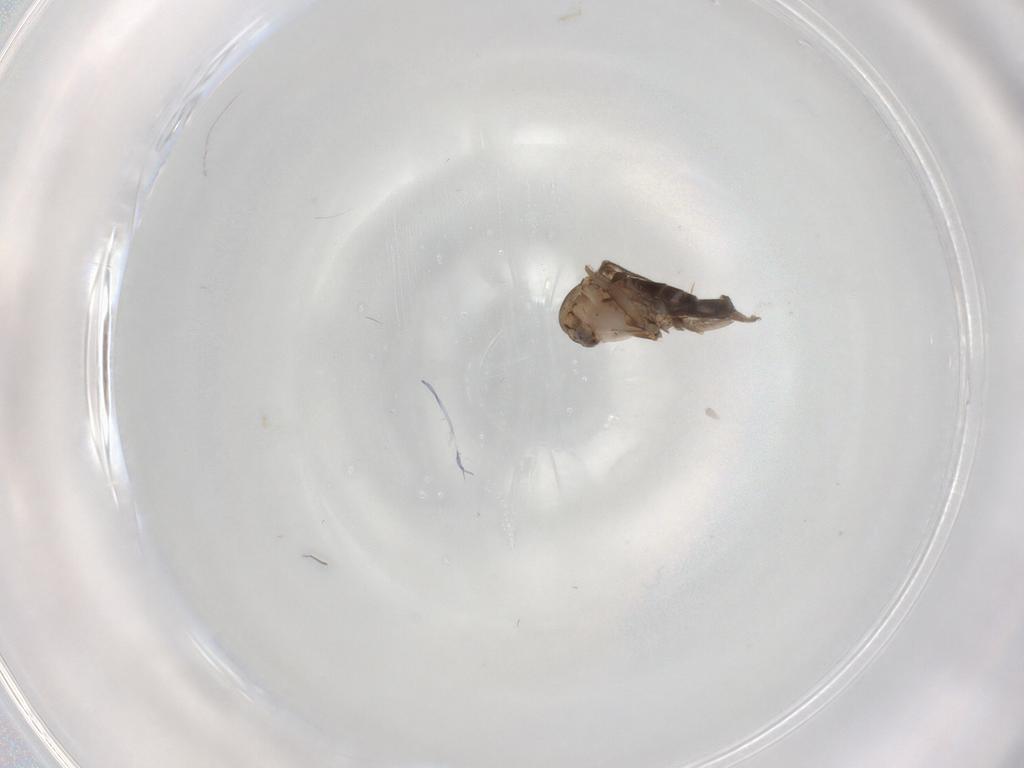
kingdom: Animalia
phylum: Arthropoda
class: Insecta
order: Diptera
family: Phoridae
